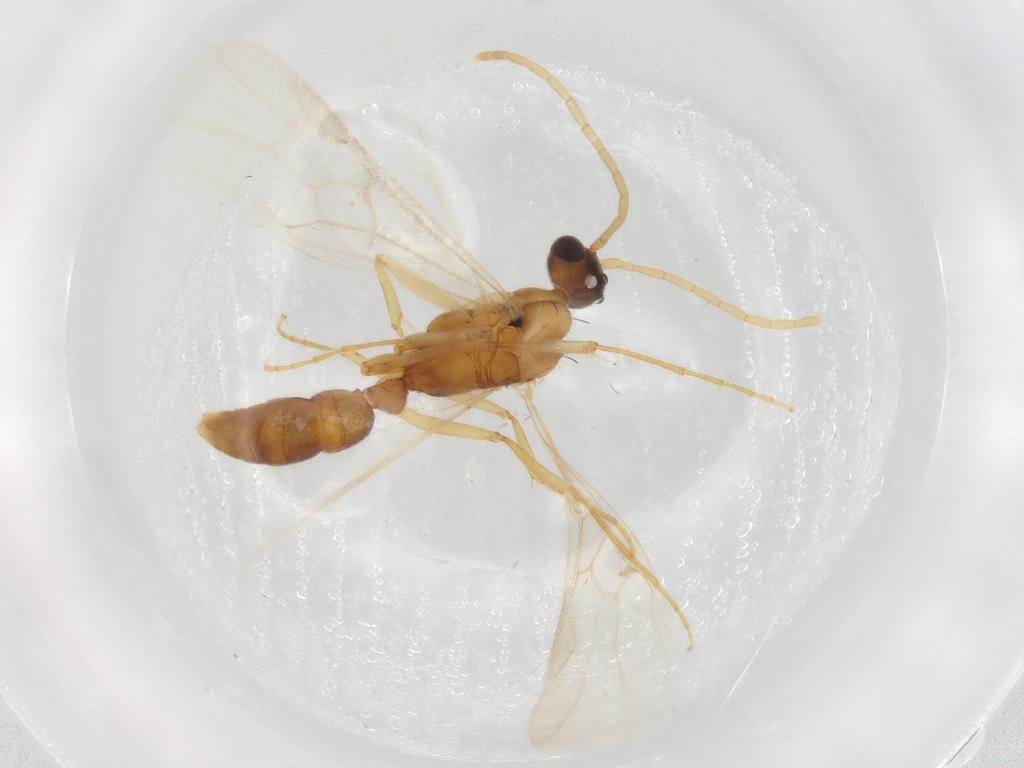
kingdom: Animalia
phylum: Arthropoda
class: Insecta
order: Hymenoptera
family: Formicidae
